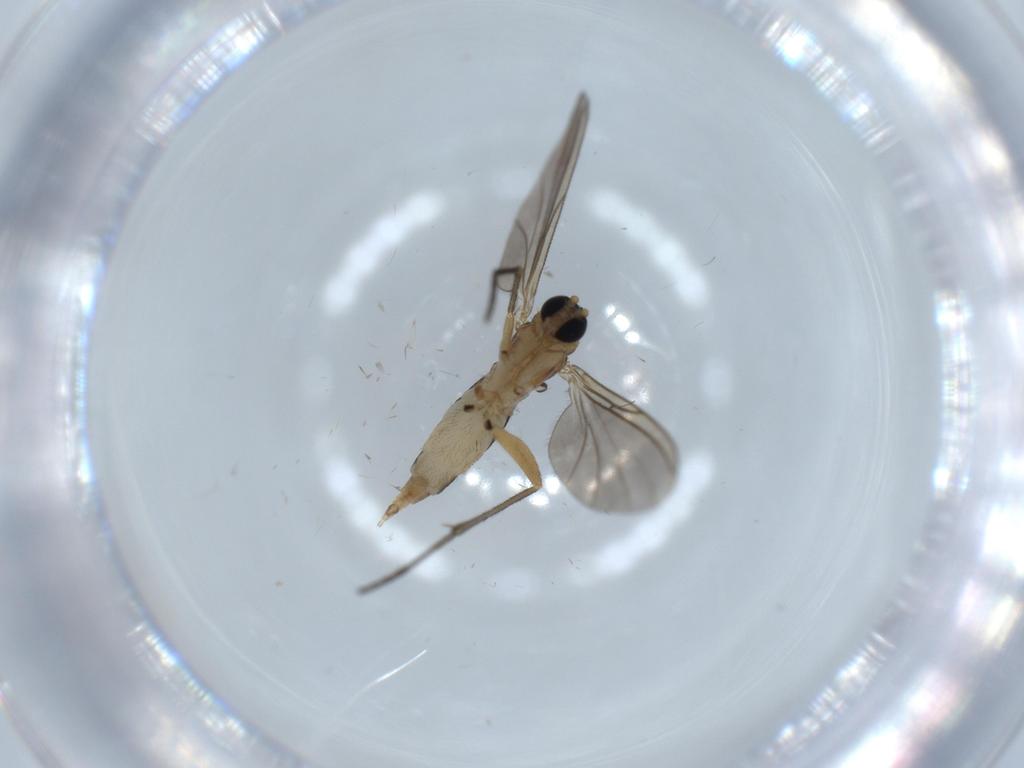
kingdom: Animalia
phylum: Arthropoda
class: Insecta
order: Diptera
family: Sciaridae
